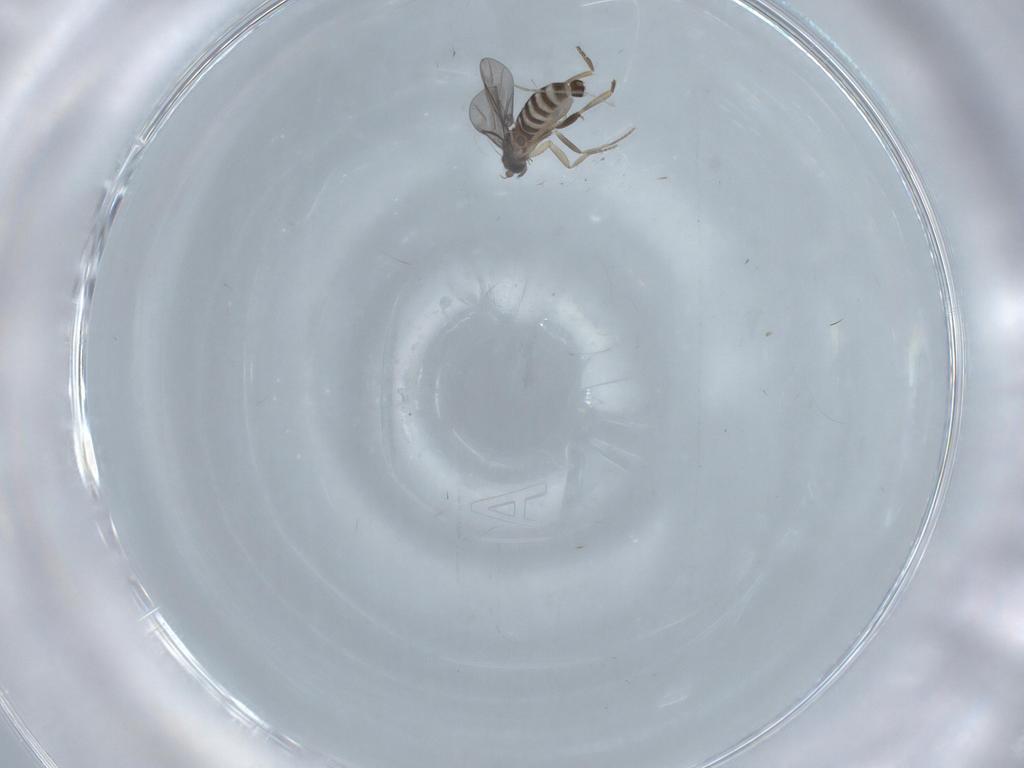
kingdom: Animalia
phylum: Arthropoda
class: Insecta
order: Diptera
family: Cecidomyiidae
